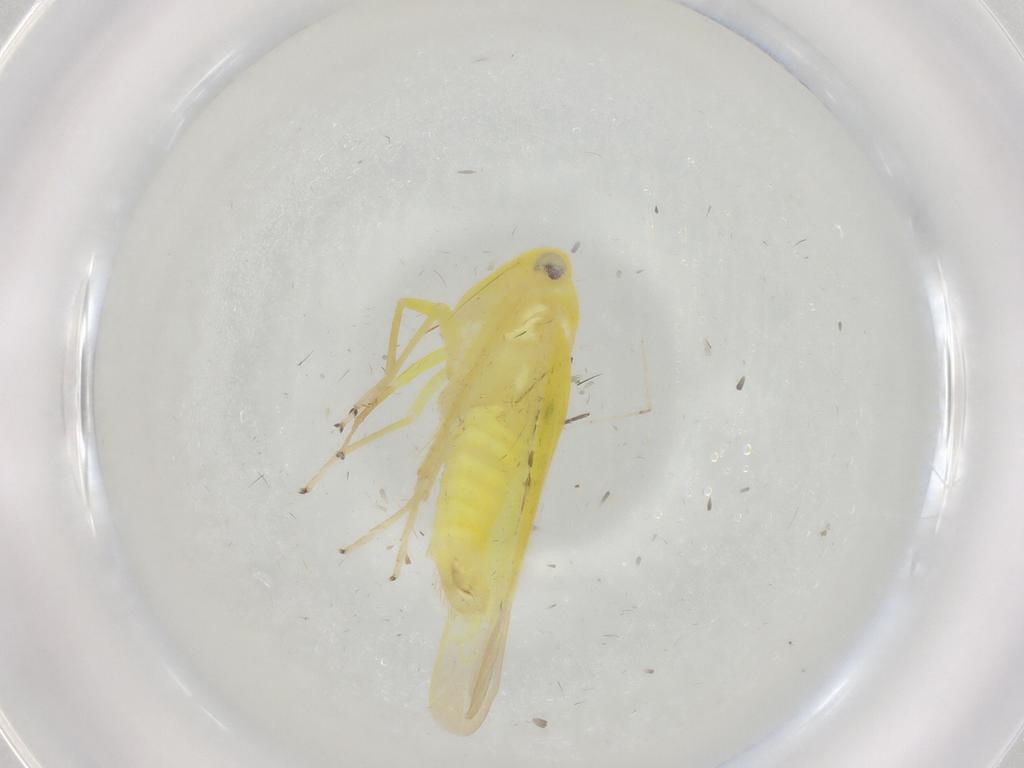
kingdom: Animalia
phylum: Arthropoda
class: Insecta
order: Hemiptera
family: Cicadellidae
